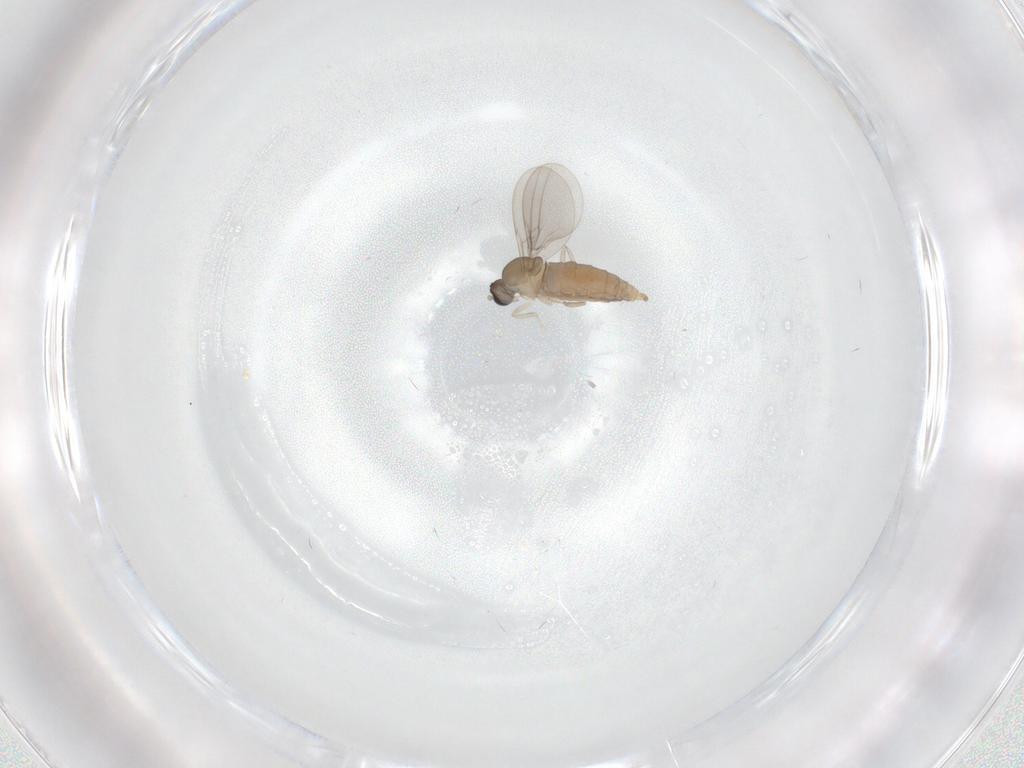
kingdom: Animalia
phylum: Arthropoda
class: Insecta
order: Diptera
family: Cecidomyiidae
